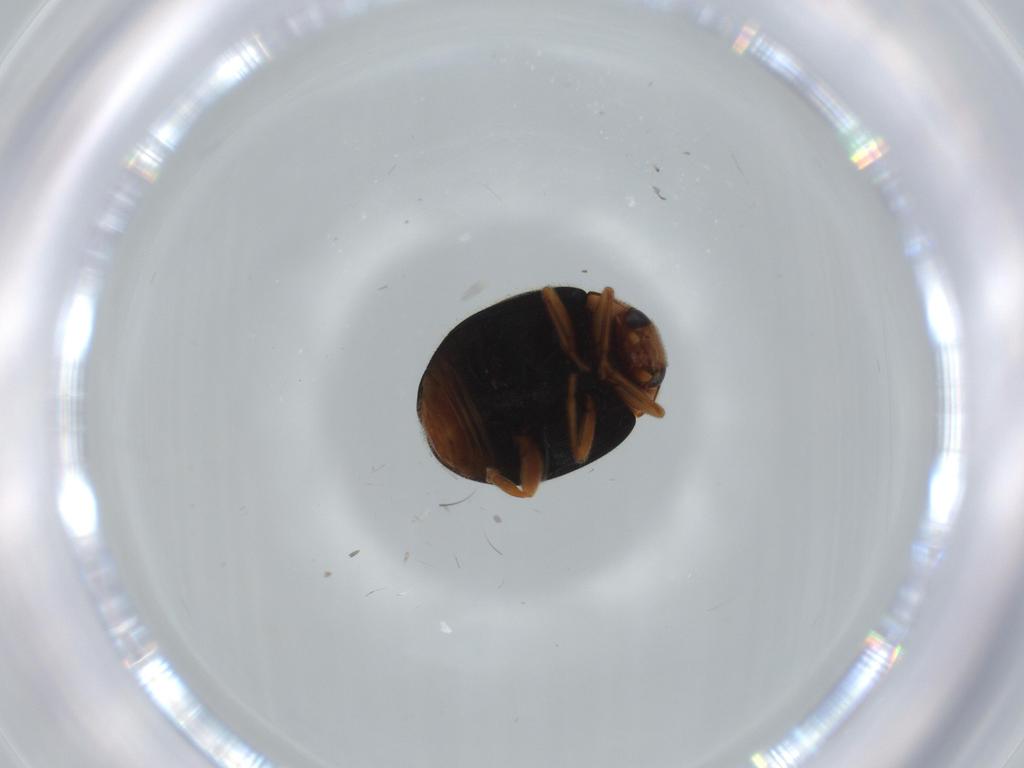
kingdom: Animalia
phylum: Arthropoda
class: Insecta
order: Coleoptera
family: Coccinellidae
